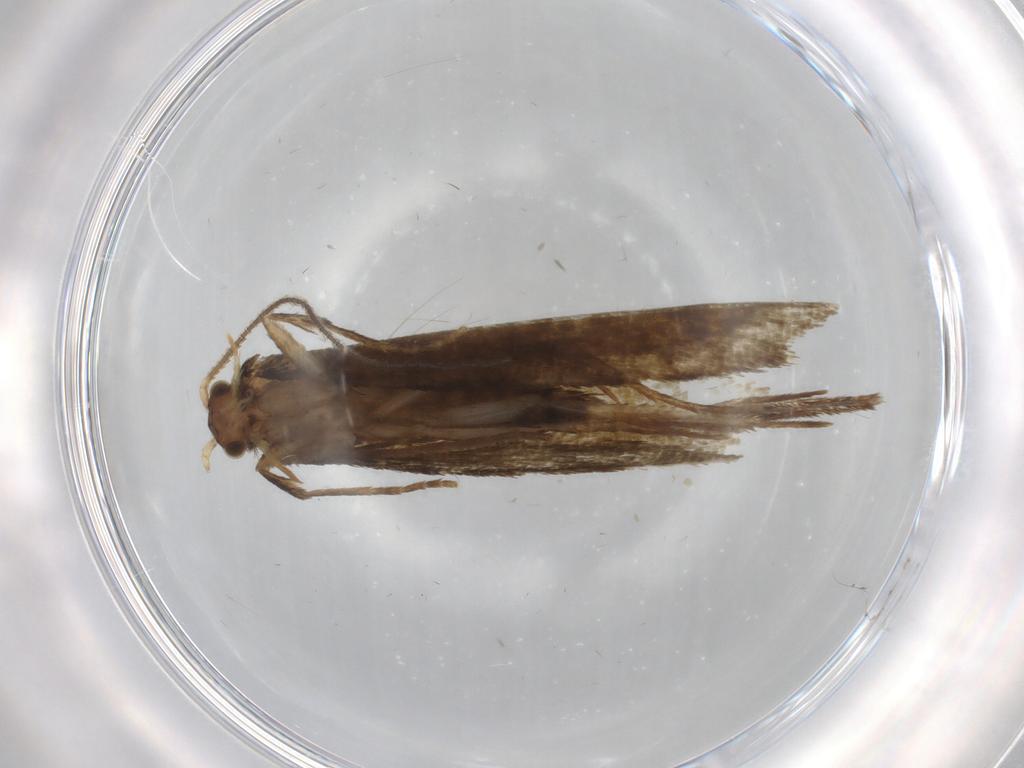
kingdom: Animalia
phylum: Arthropoda
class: Insecta
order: Lepidoptera
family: Tineidae
